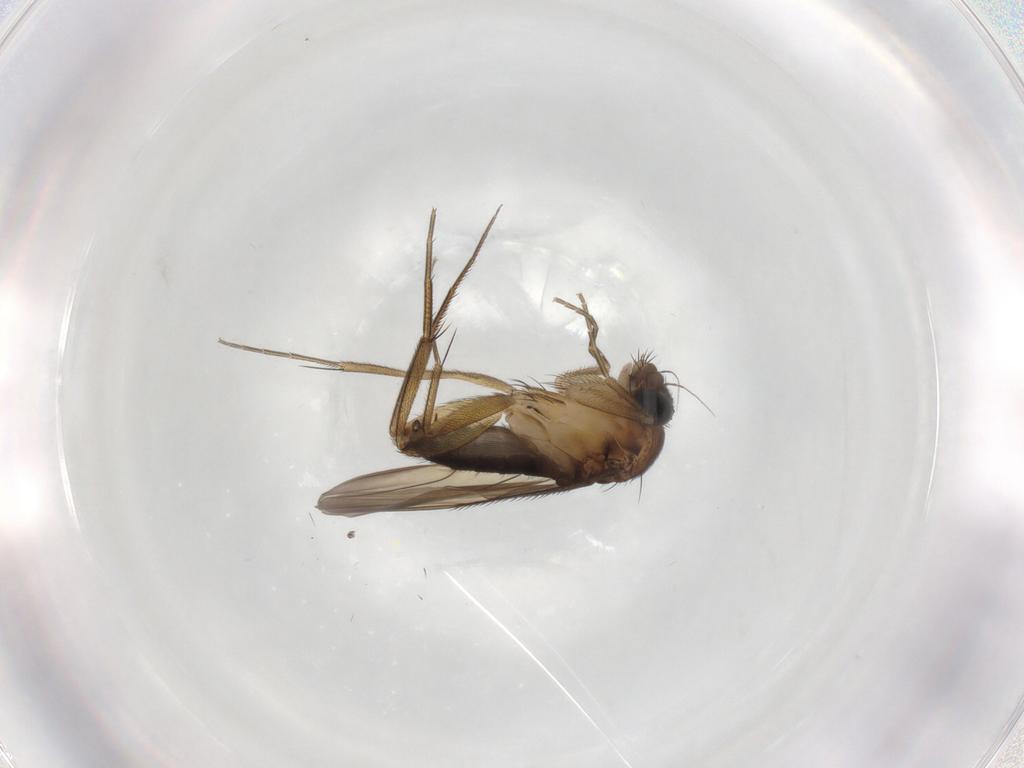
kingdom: Animalia
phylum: Arthropoda
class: Insecta
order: Diptera
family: Phoridae
